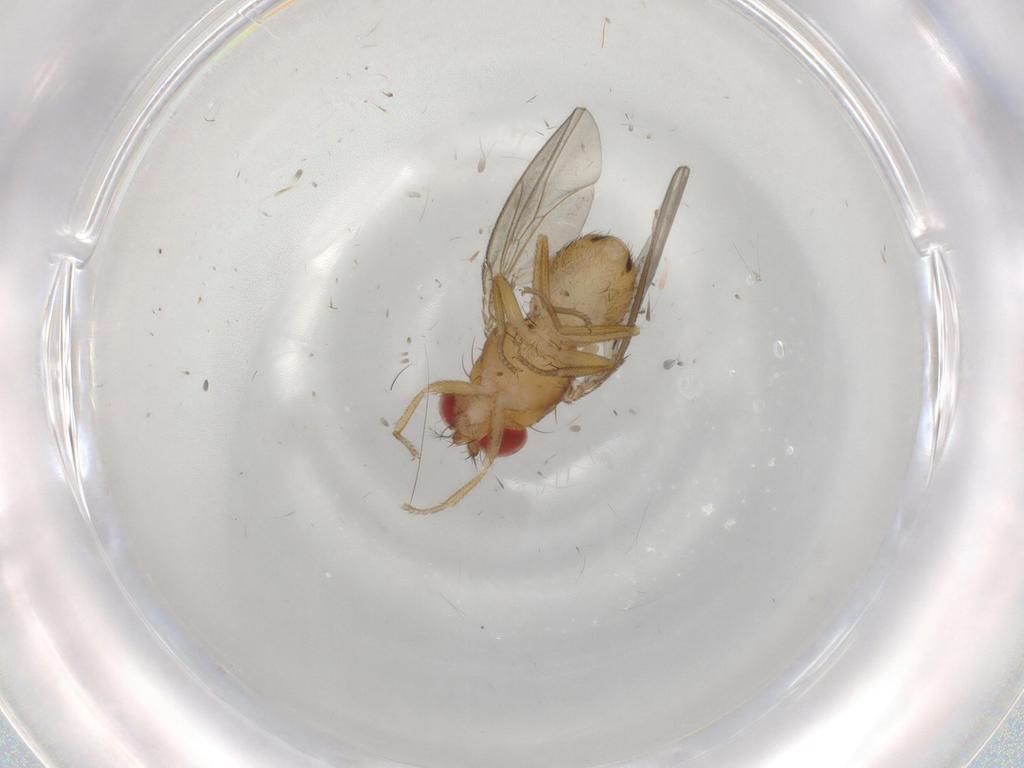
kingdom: Animalia
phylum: Arthropoda
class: Insecta
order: Diptera
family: Drosophilidae
